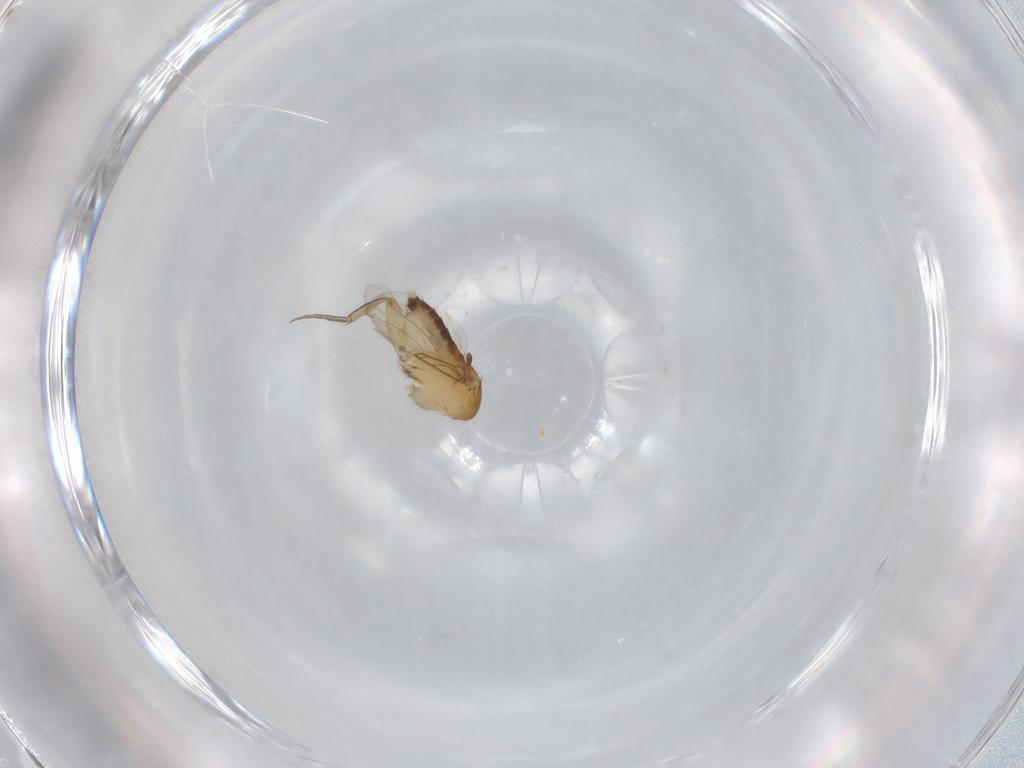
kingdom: Animalia
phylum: Arthropoda
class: Insecta
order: Diptera
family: Phoridae
